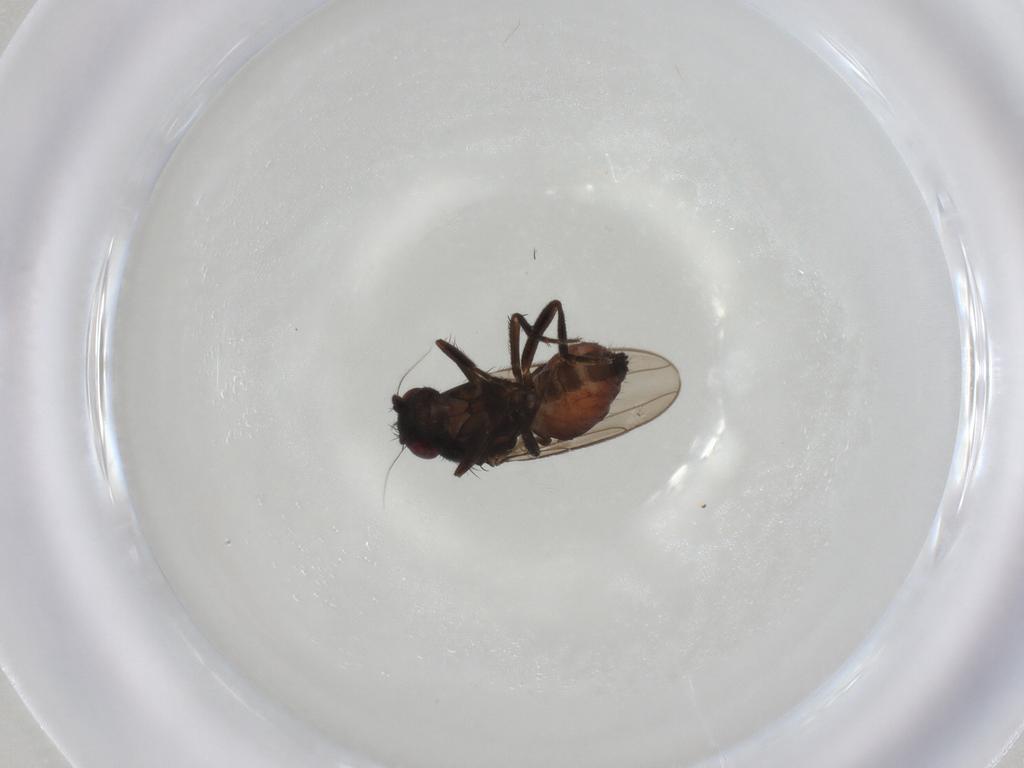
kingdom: Animalia
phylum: Arthropoda
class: Insecta
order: Diptera
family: Sphaeroceridae
